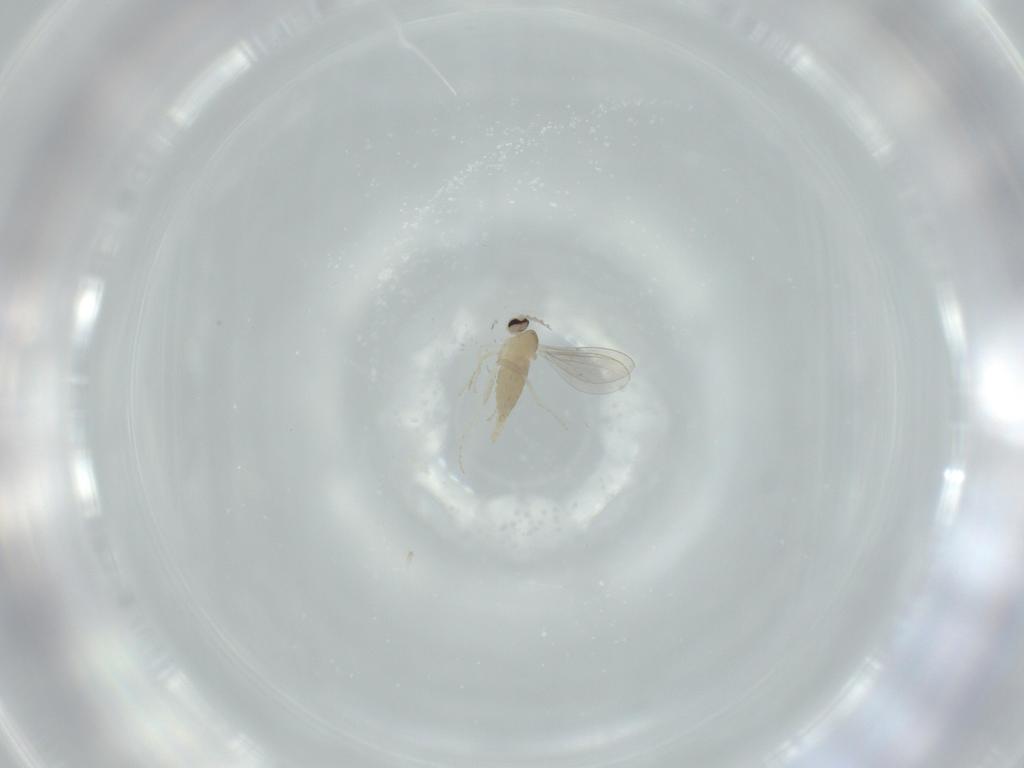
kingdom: Animalia
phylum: Arthropoda
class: Insecta
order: Diptera
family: Cecidomyiidae
